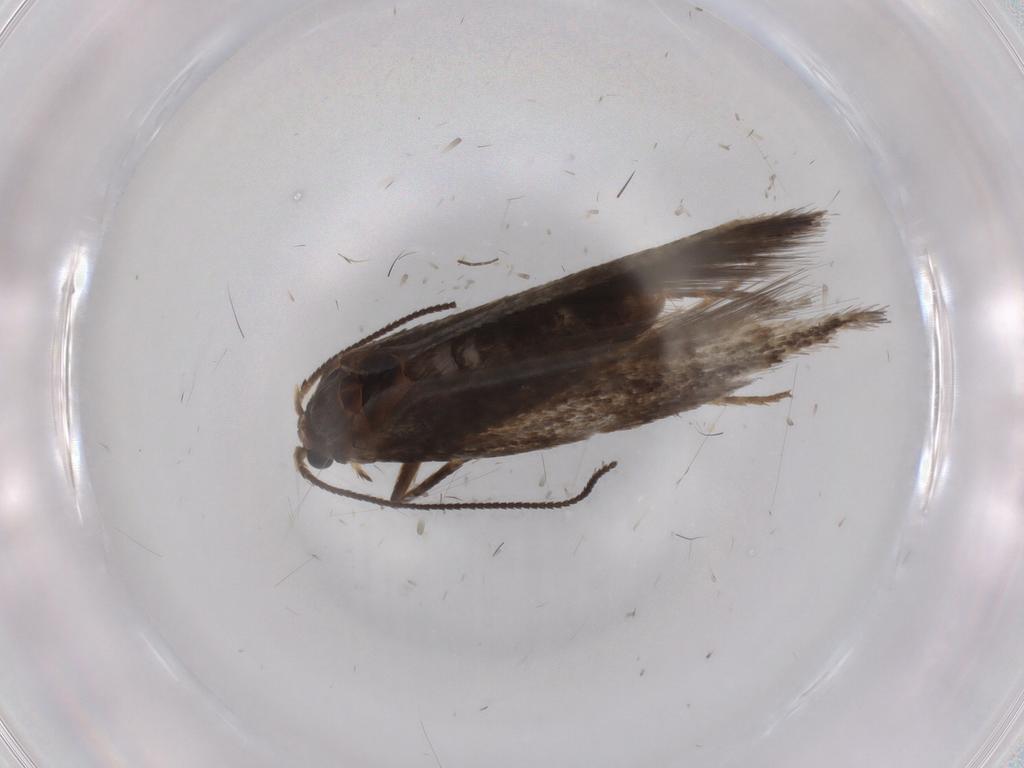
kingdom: Animalia
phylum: Arthropoda
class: Insecta
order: Lepidoptera
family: Nepticulidae
